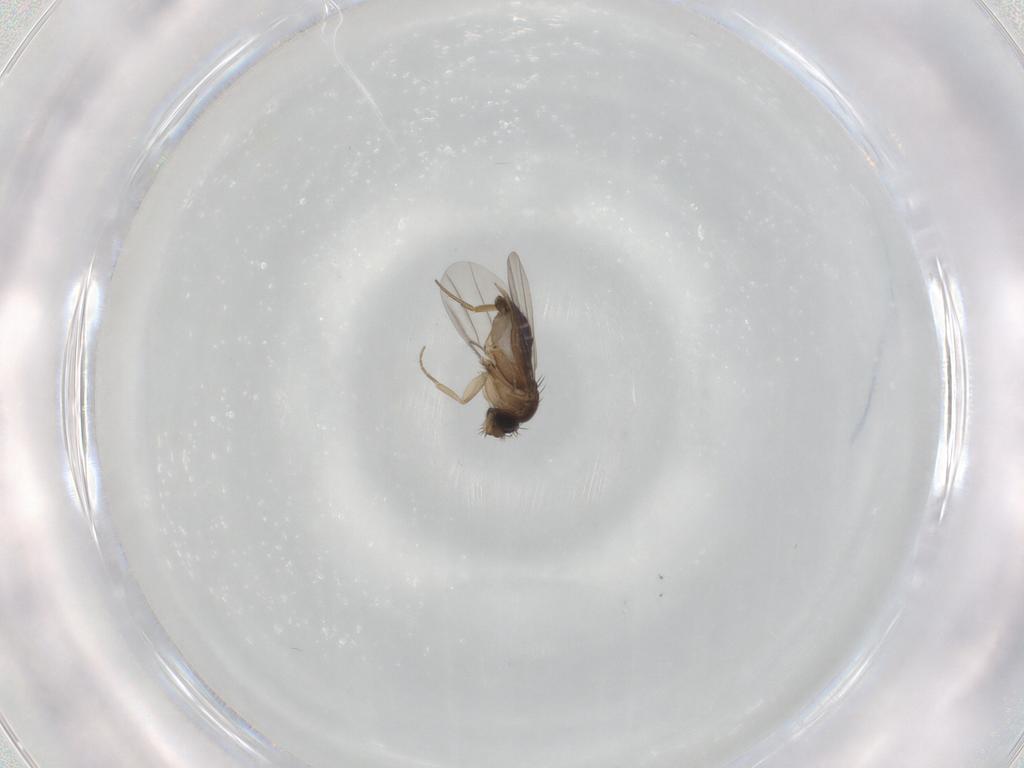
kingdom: Animalia
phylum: Arthropoda
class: Insecta
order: Diptera
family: Phoridae
